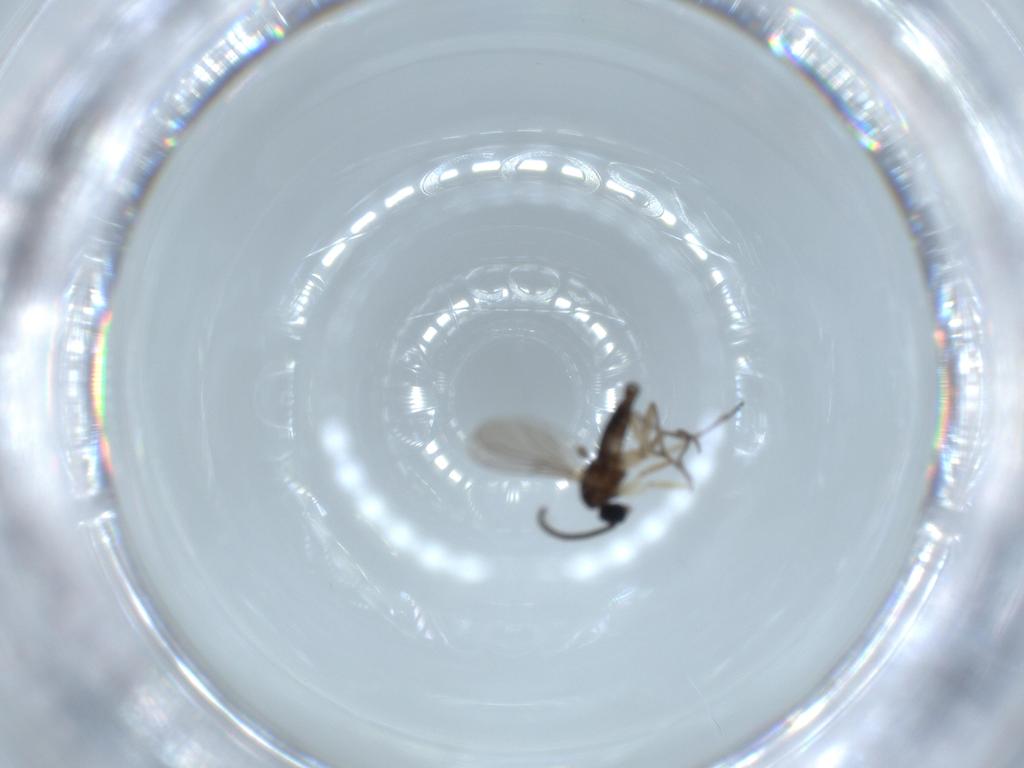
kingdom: Animalia
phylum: Arthropoda
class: Insecta
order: Diptera
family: Sciaridae
